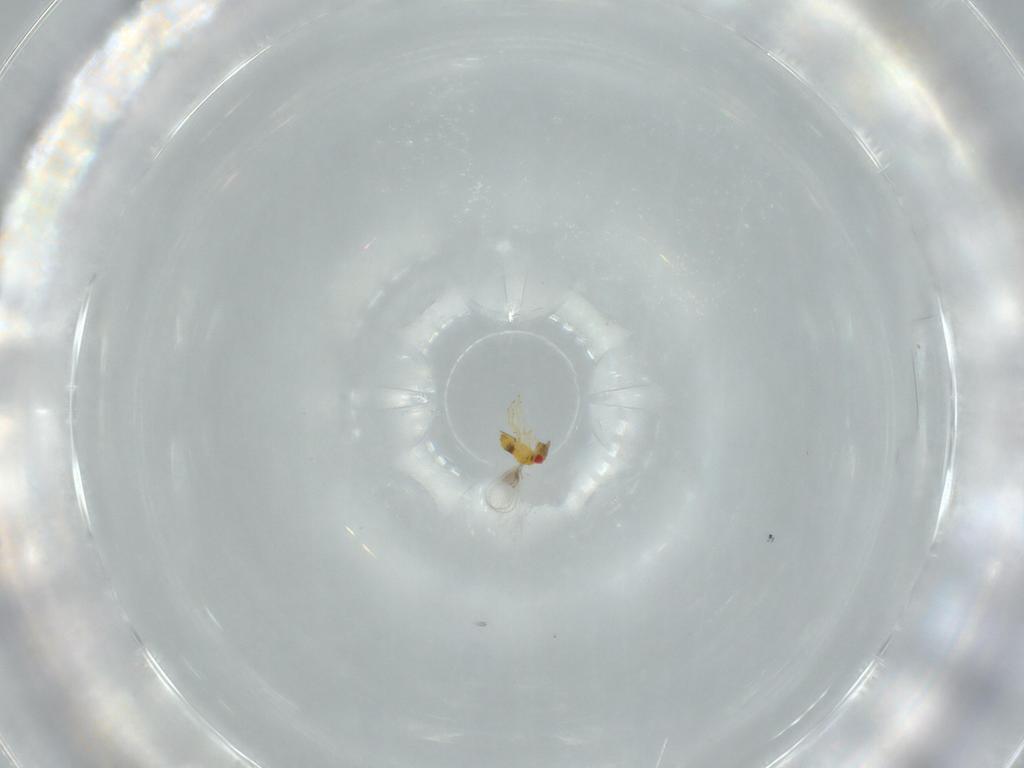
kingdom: Animalia
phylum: Arthropoda
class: Insecta
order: Hymenoptera
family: Trichogrammatidae
